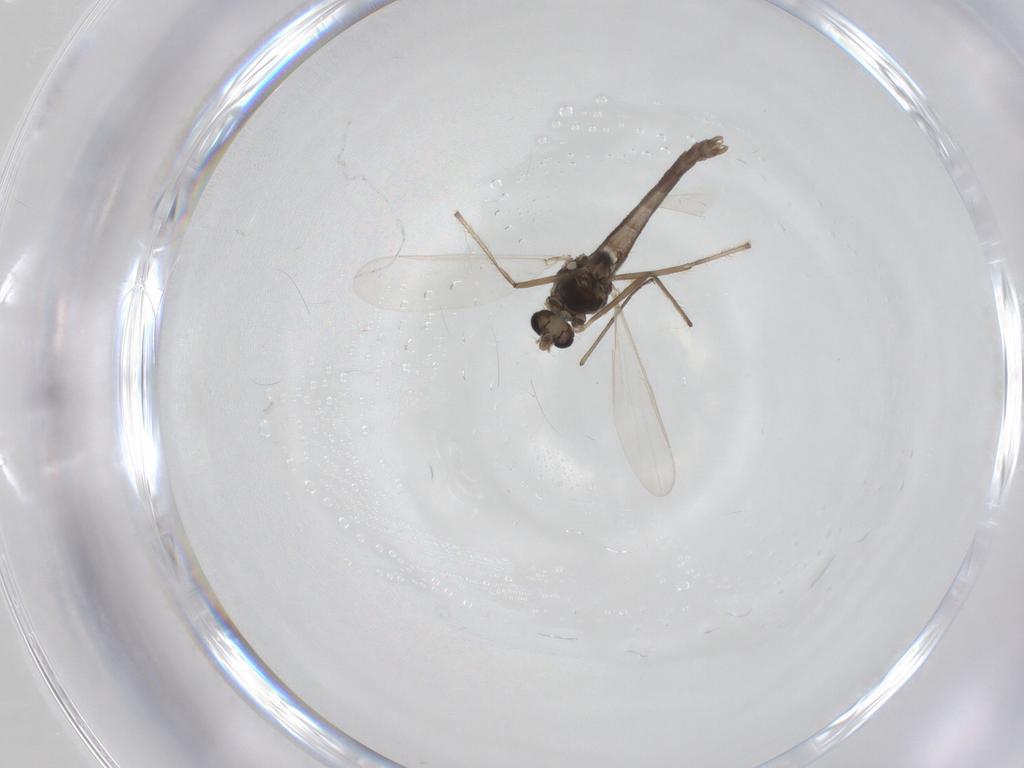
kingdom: Animalia
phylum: Arthropoda
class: Insecta
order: Diptera
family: Chironomidae
